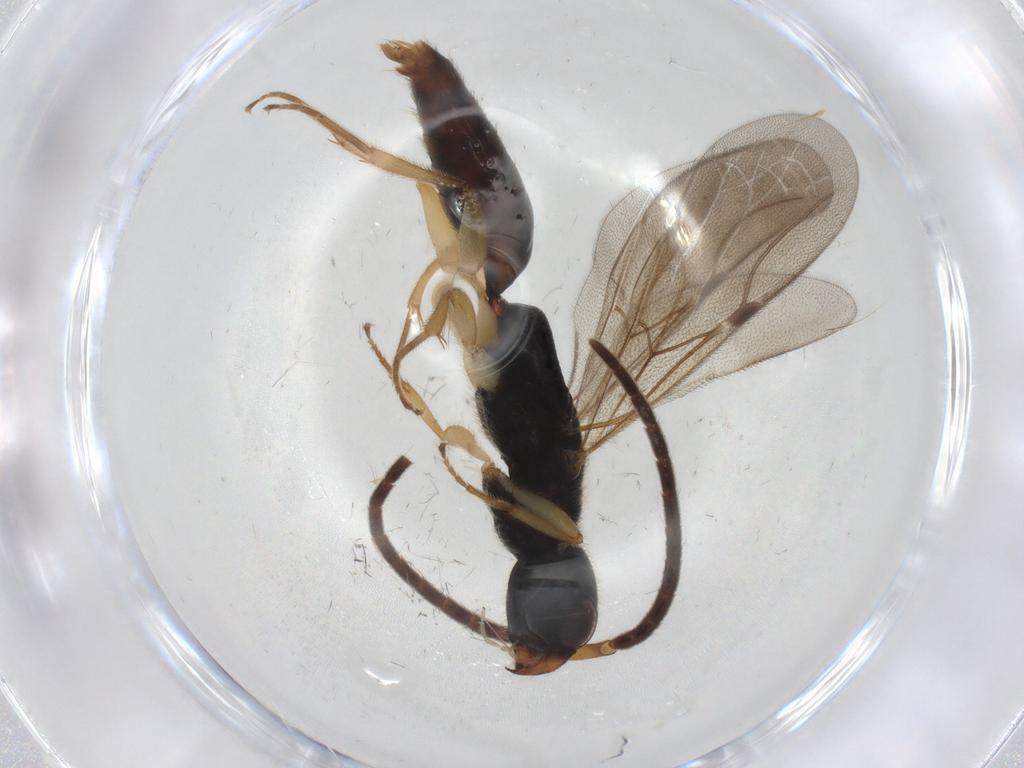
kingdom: Animalia
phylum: Arthropoda
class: Insecta
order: Hymenoptera
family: Bethylidae
